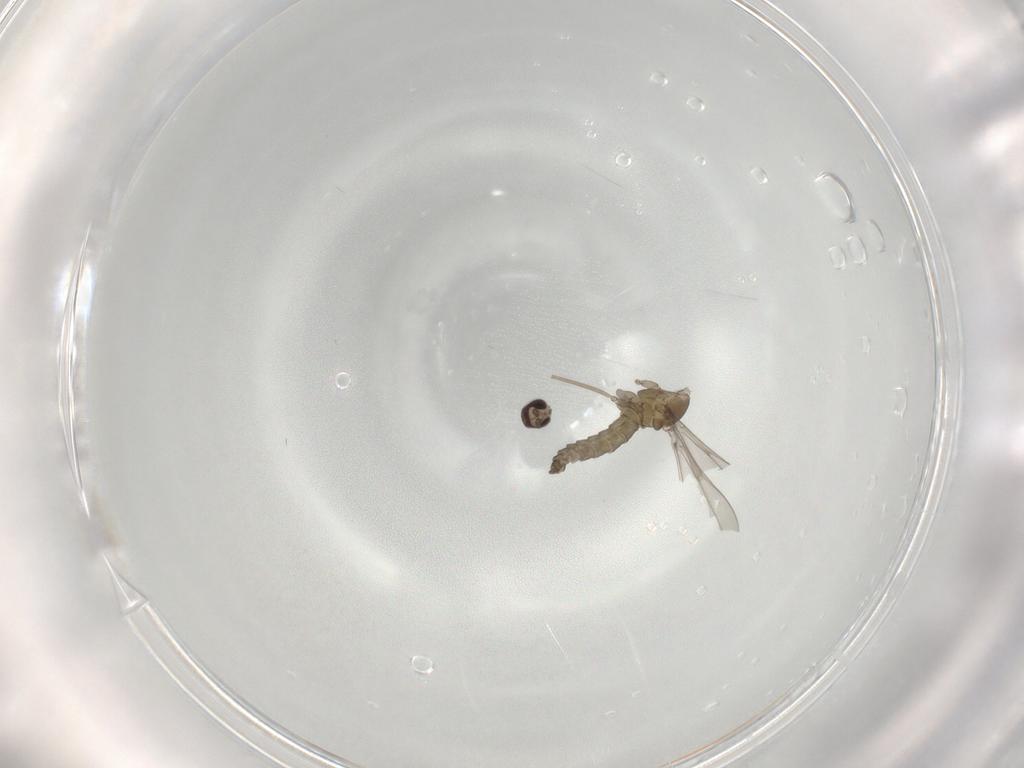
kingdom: Animalia
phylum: Arthropoda
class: Insecta
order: Diptera
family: Cecidomyiidae
